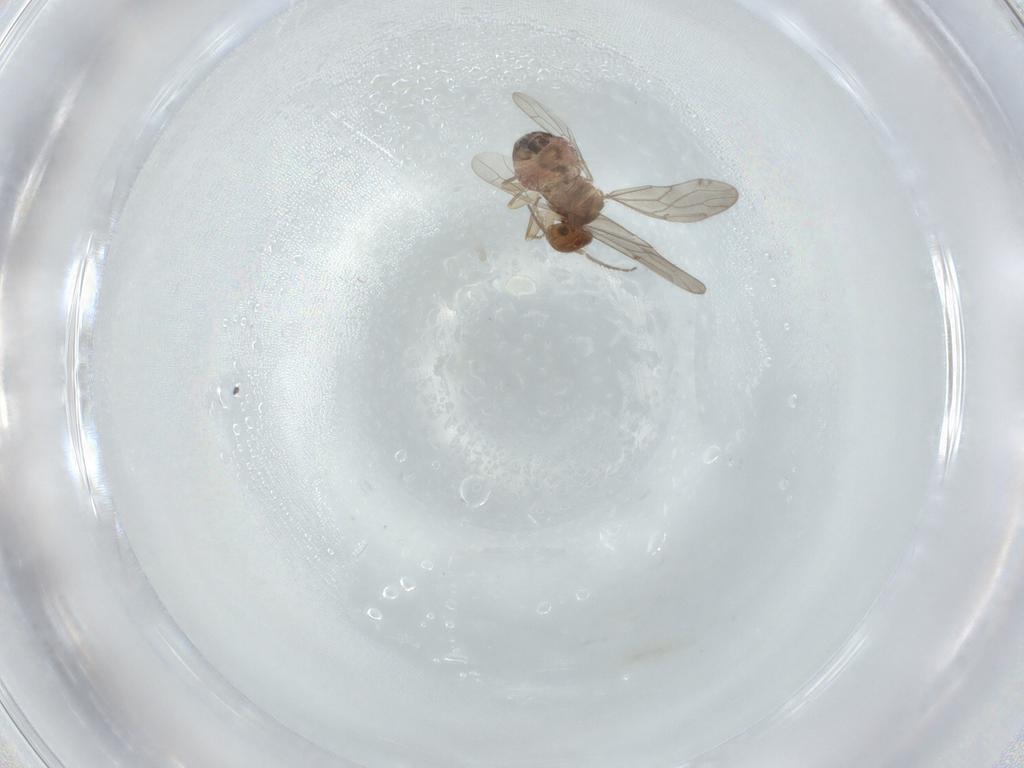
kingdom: Animalia
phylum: Arthropoda
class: Insecta
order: Psocodea
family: Ectopsocidae
